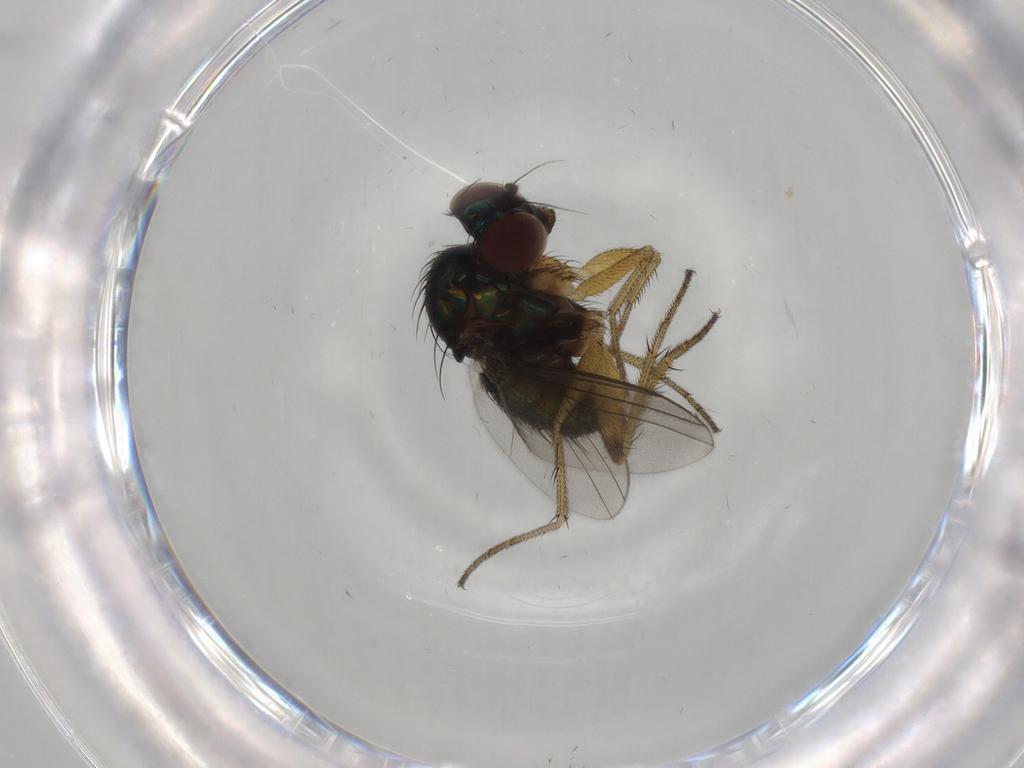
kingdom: Animalia
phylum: Arthropoda
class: Insecta
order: Diptera
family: Dolichopodidae
